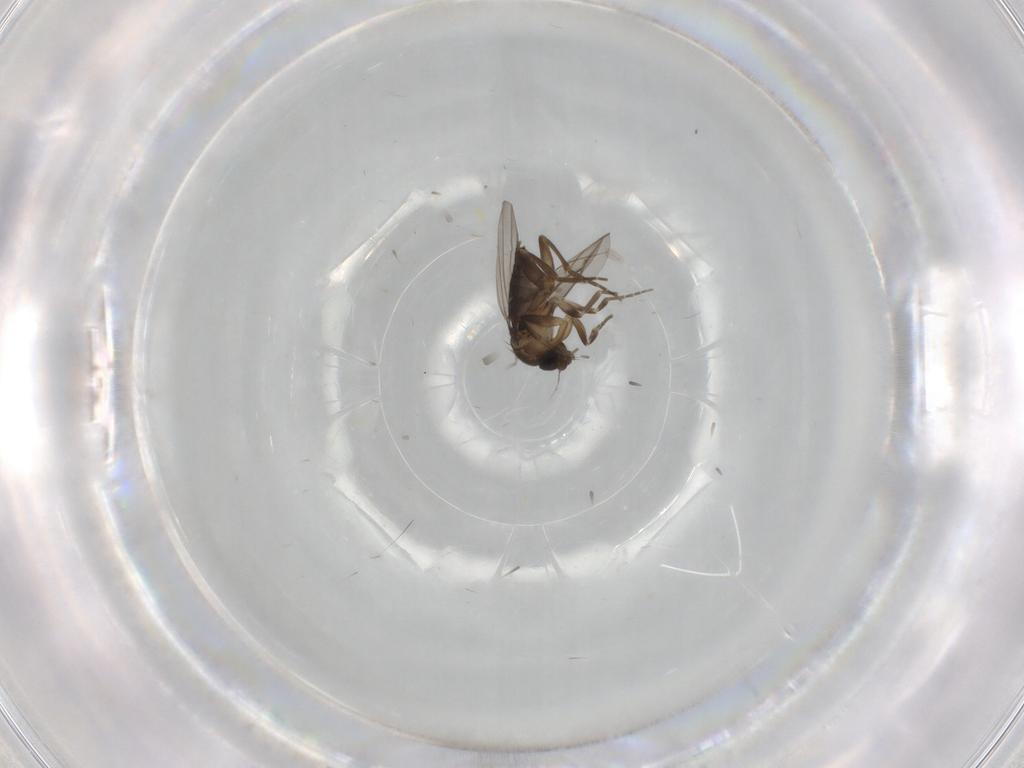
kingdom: Animalia
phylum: Arthropoda
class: Insecta
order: Diptera
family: Phoridae
